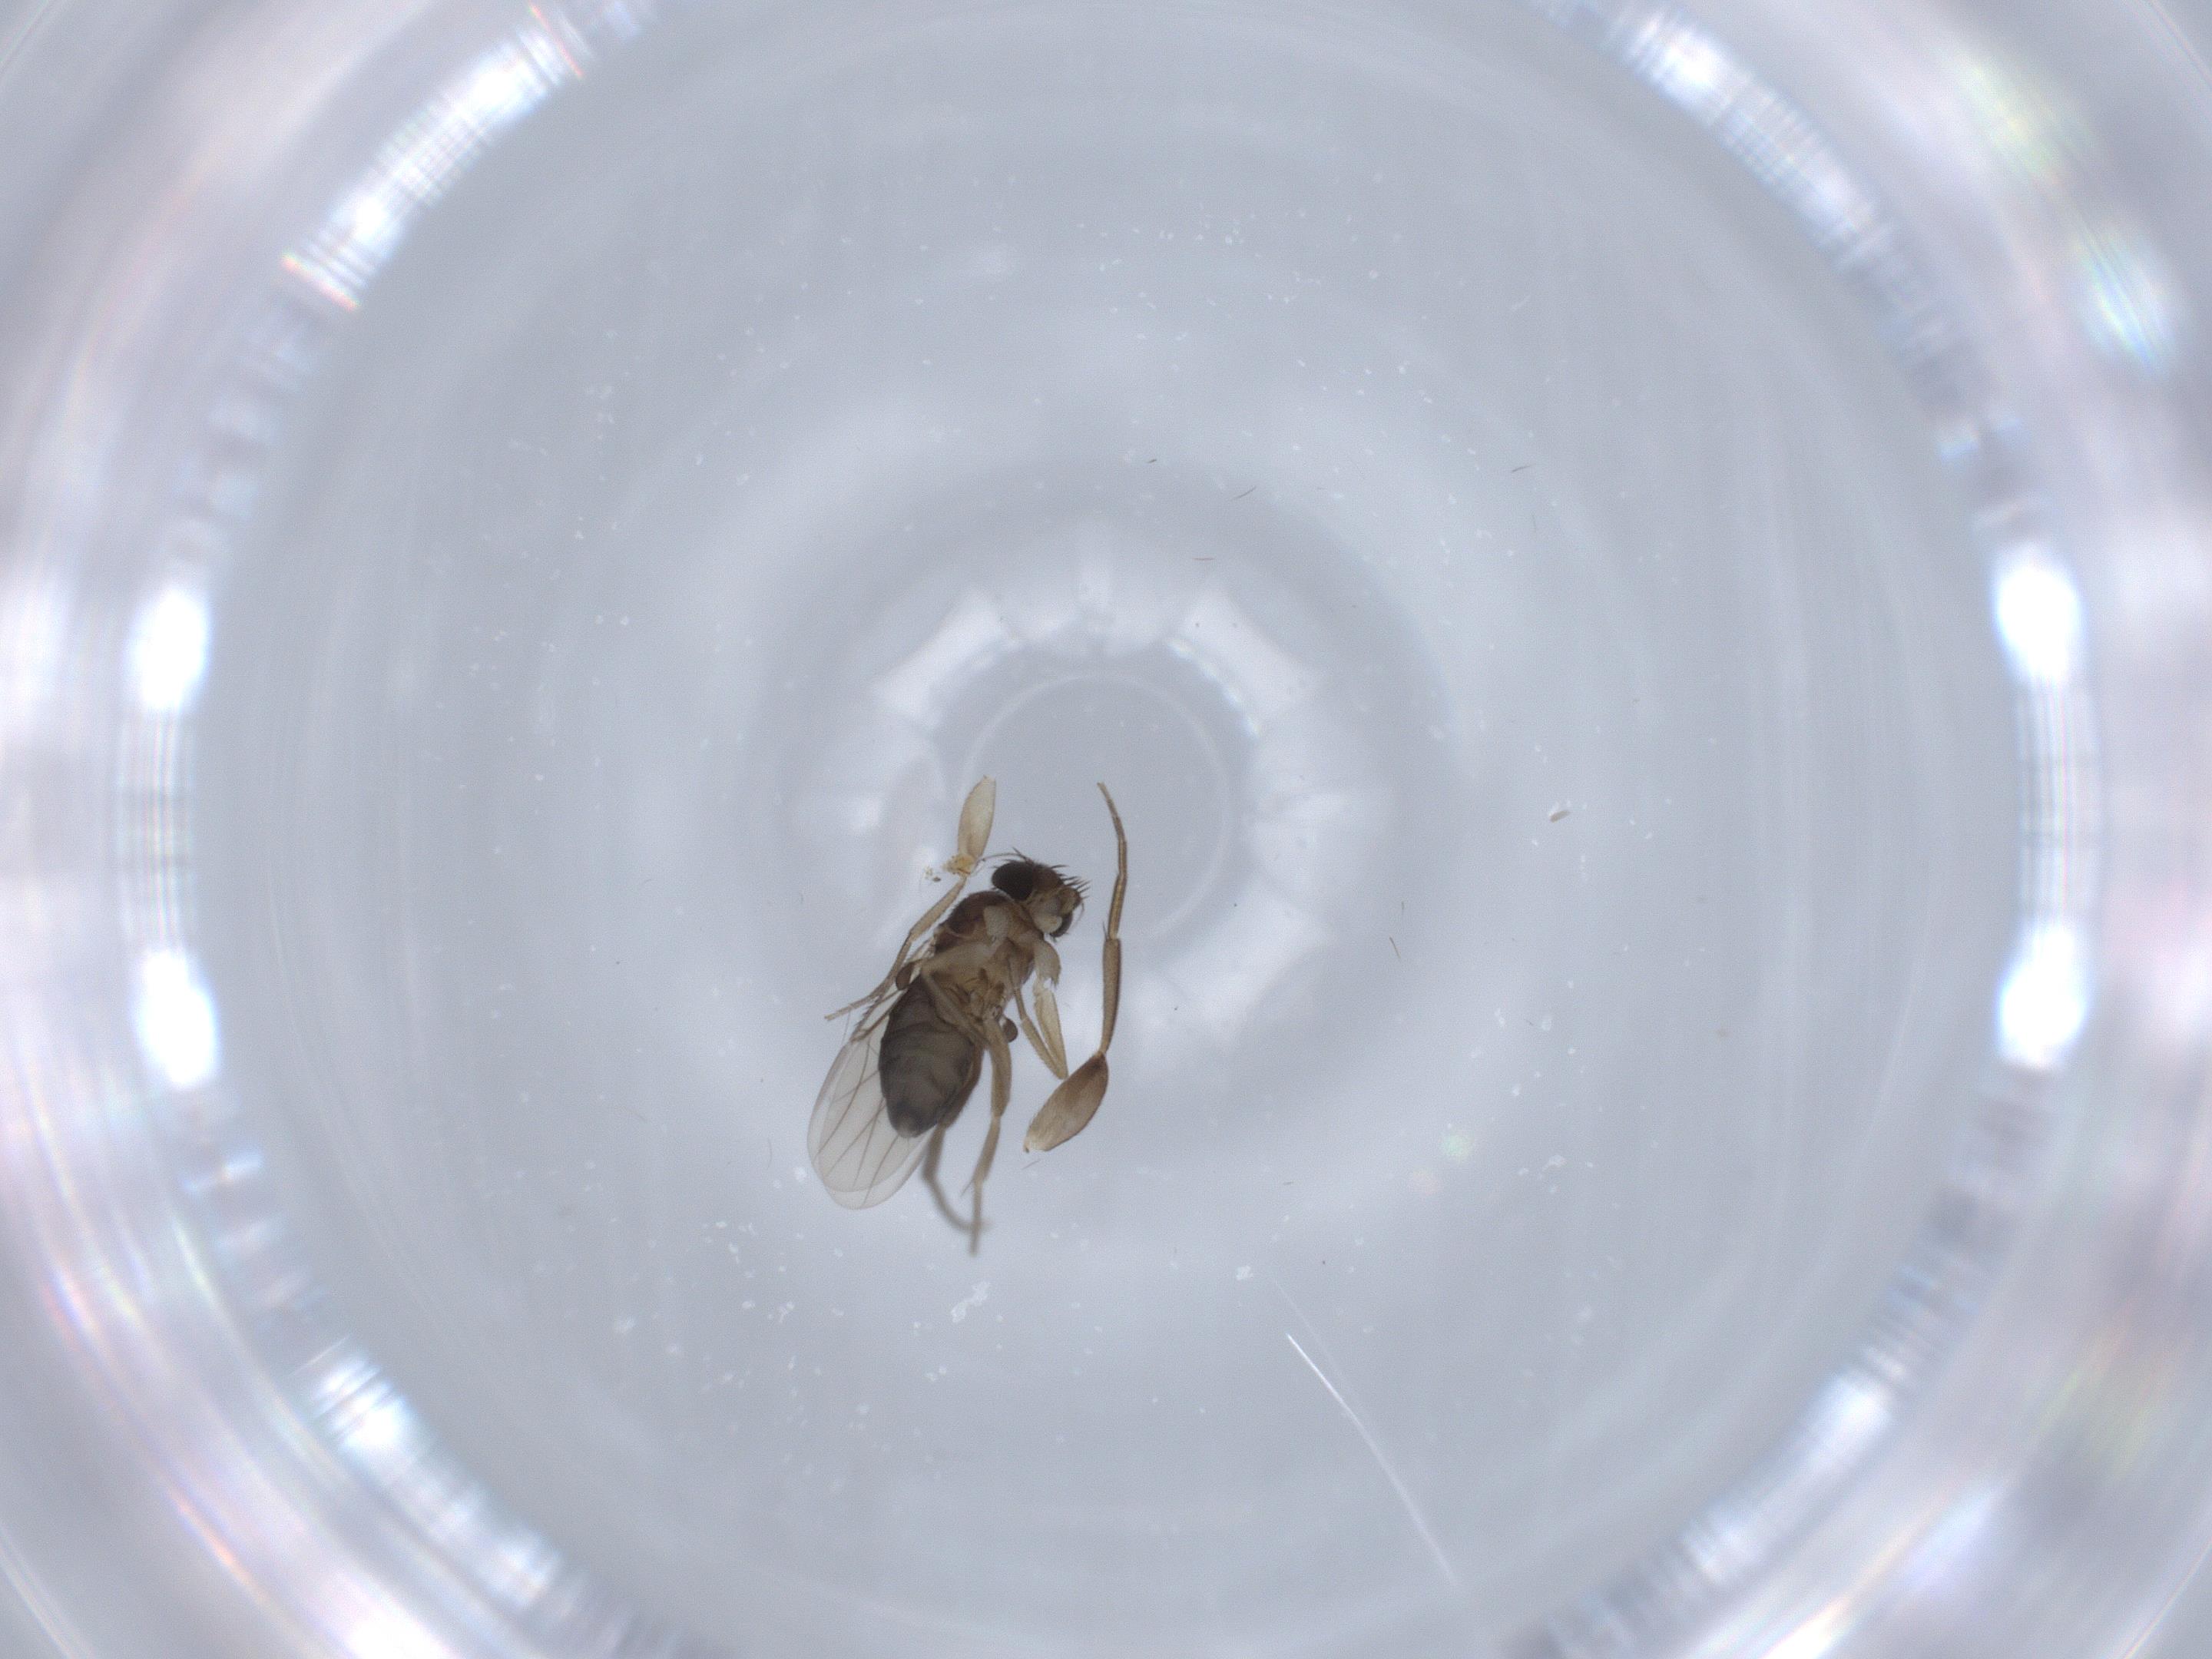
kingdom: Animalia
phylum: Arthropoda
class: Insecta
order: Diptera
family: Phoridae
